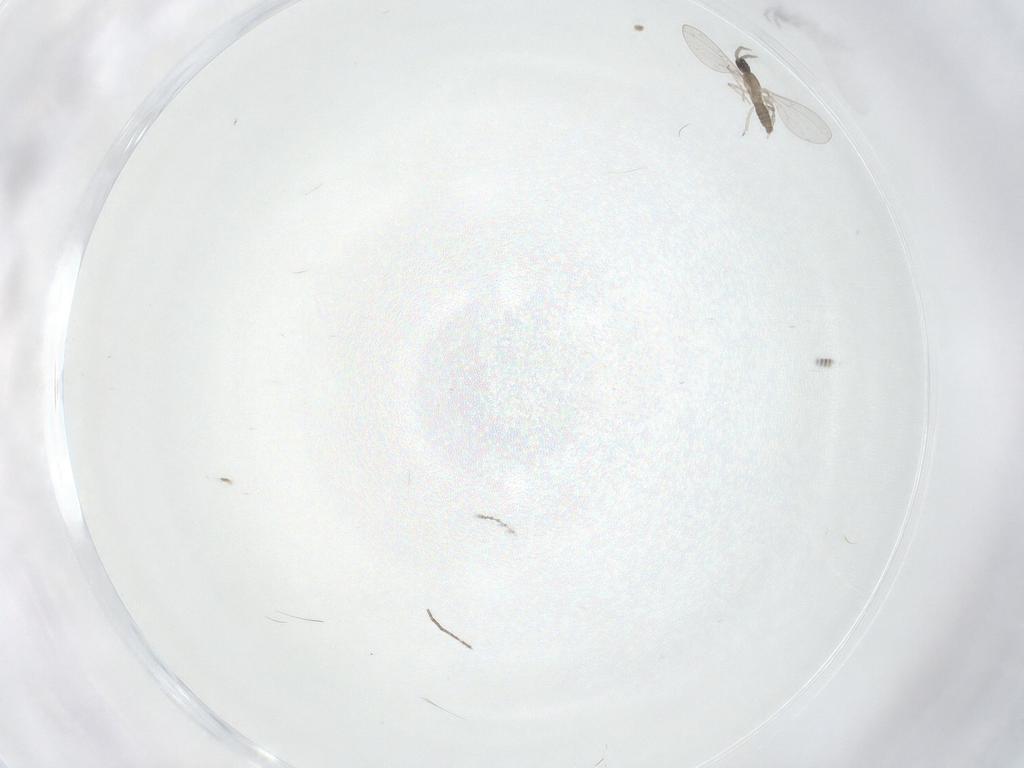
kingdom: Animalia
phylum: Arthropoda
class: Insecta
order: Diptera
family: Cecidomyiidae
